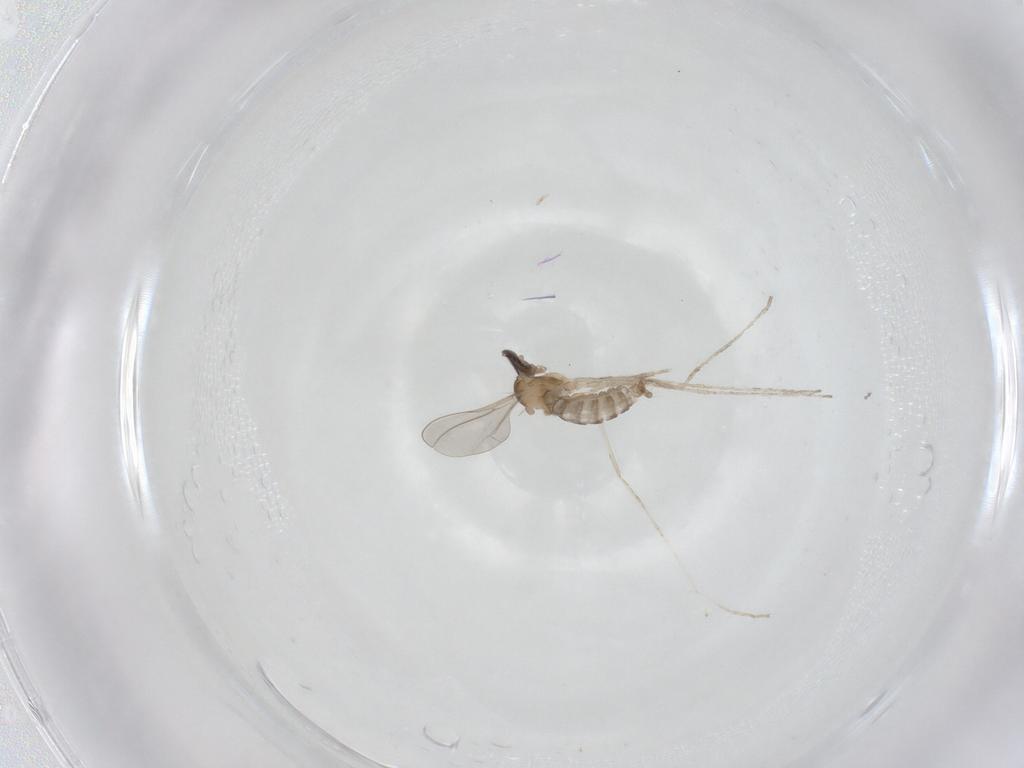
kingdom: Animalia
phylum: Arthropoda
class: Insecta
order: Diptera
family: Cecidomyiidae
